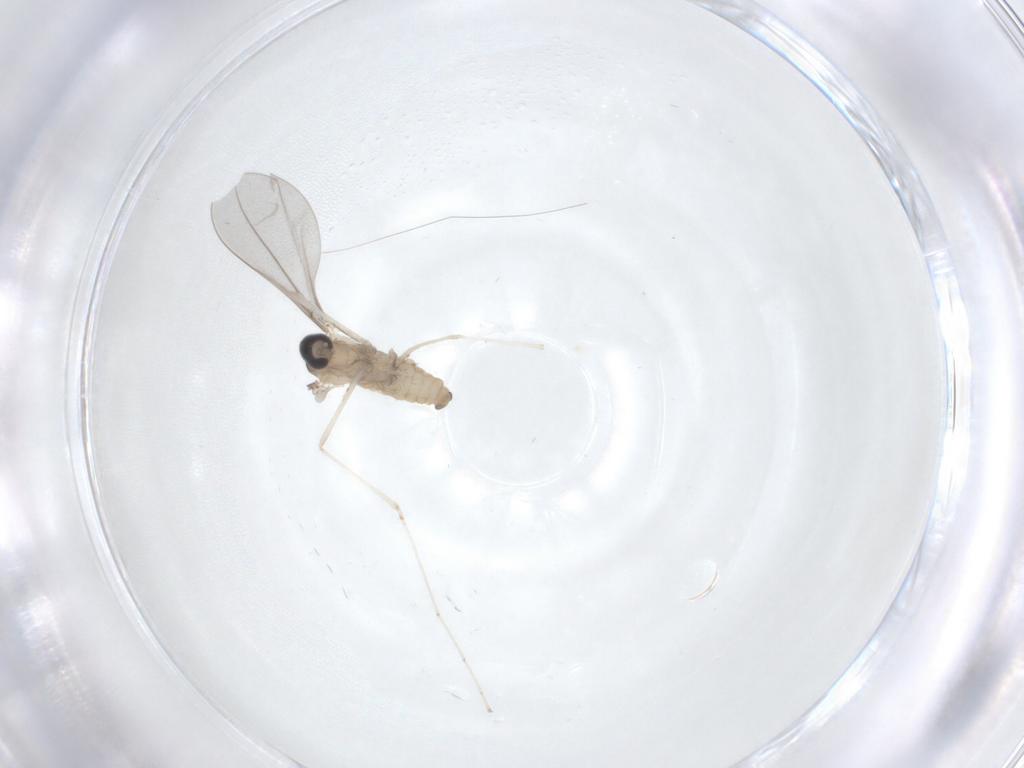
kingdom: Animalia
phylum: Arthropoda
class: Insecta
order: Diptera
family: Cecidomyiidae
